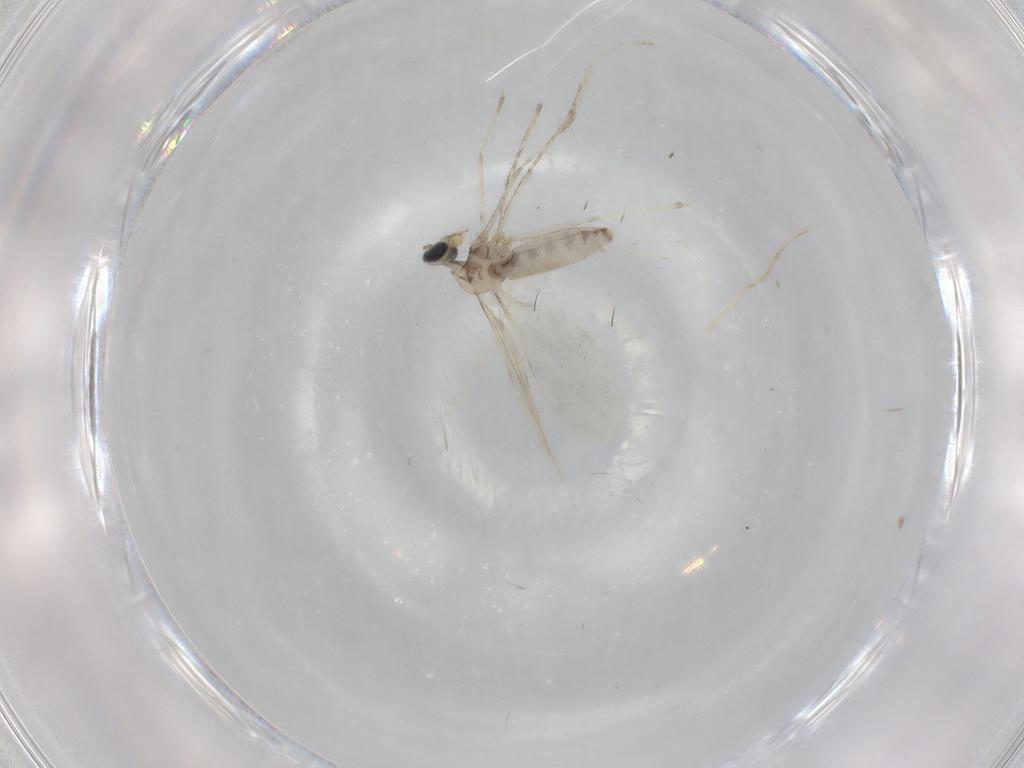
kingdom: Animalia
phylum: Arthropoda
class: Insecta
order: Diptera
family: Cecidomyiidae
